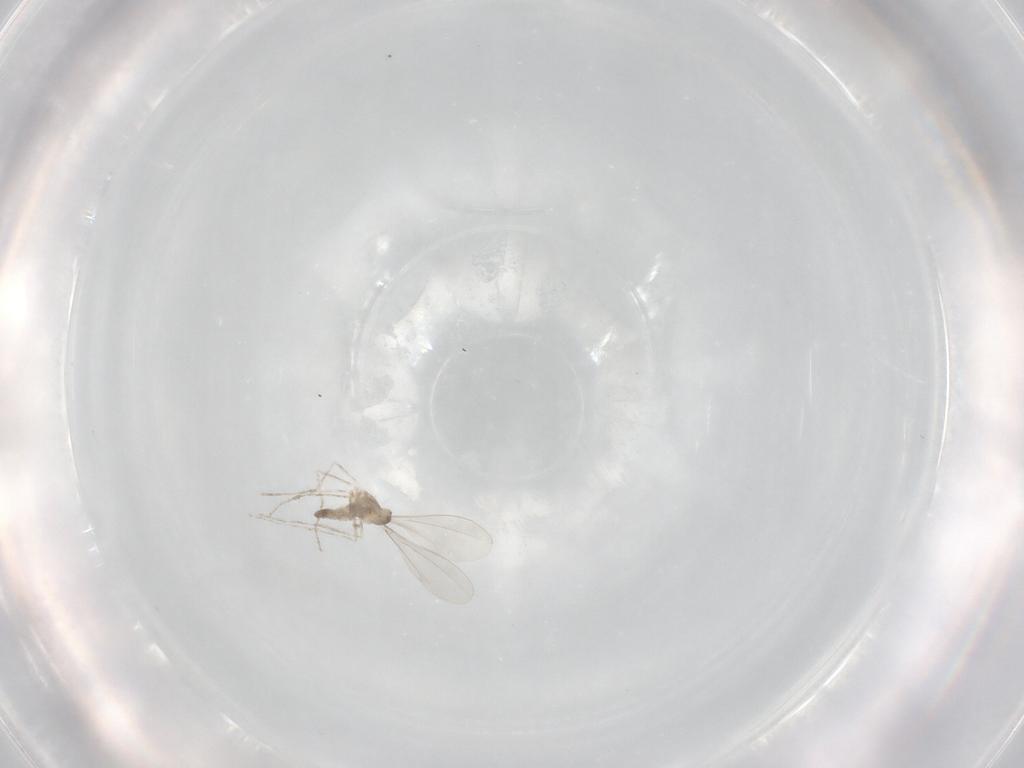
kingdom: Animalia
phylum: Arthropoda
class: Insecta
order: Diptera
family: Cecidomyiidae
